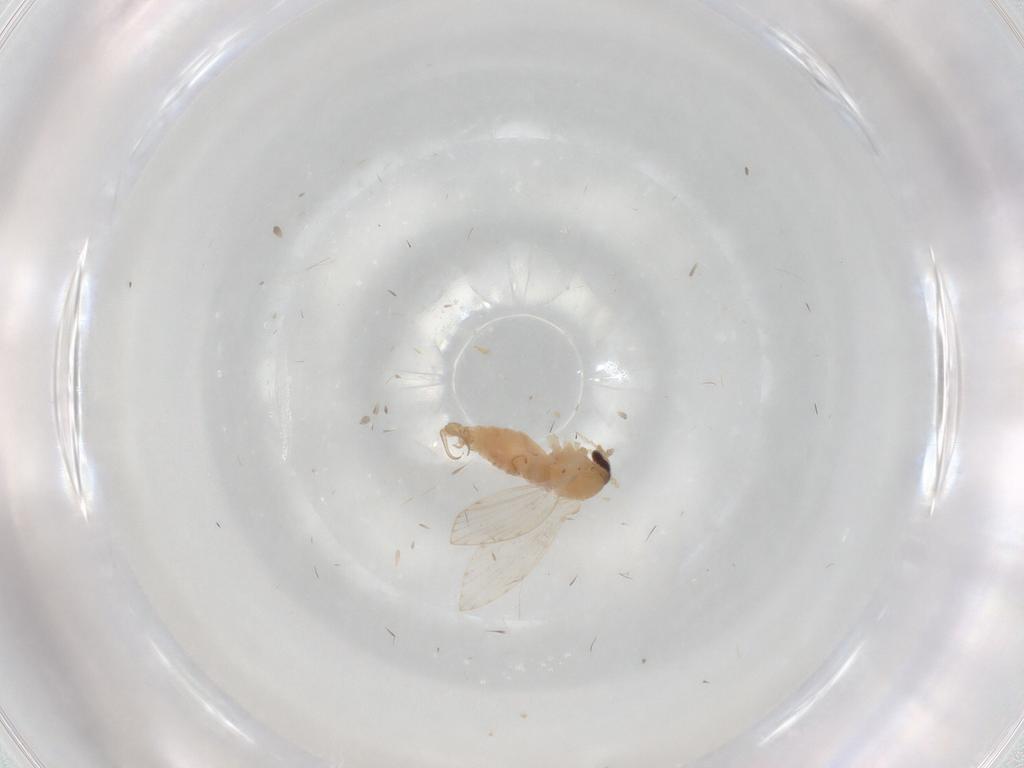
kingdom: Animalia
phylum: Arthropoda
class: Insecta
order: Diptera
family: Psychodidae
